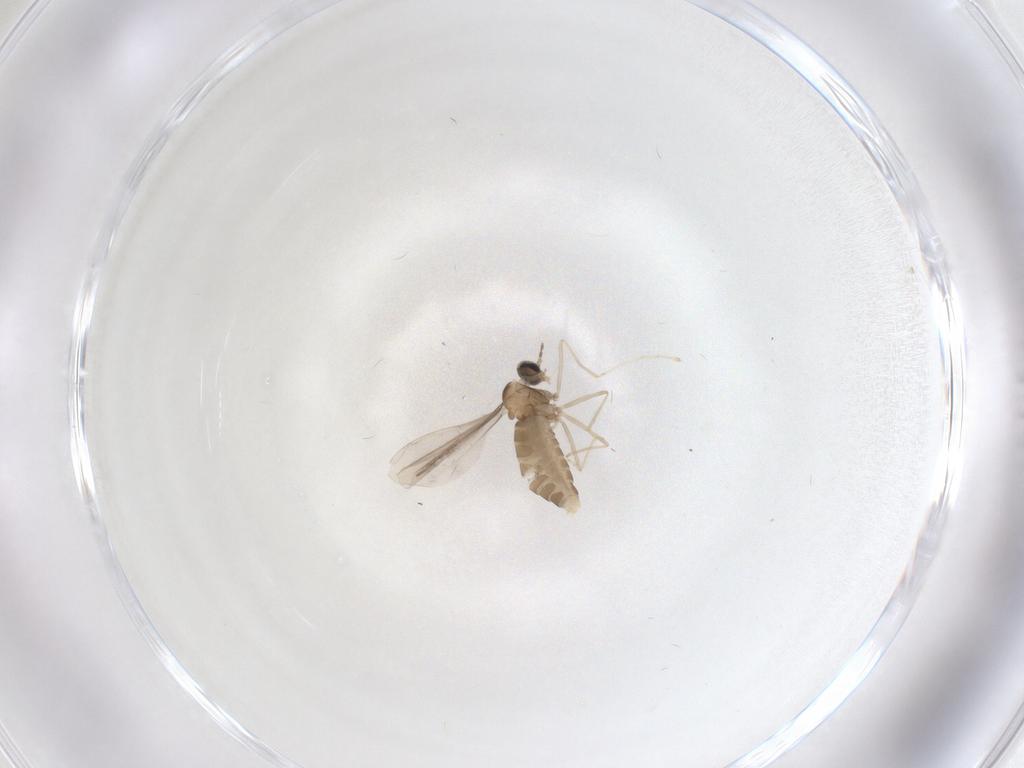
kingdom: Animalia
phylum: Arthropoda
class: Insecta
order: Diptera
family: Cecidomyiidae
